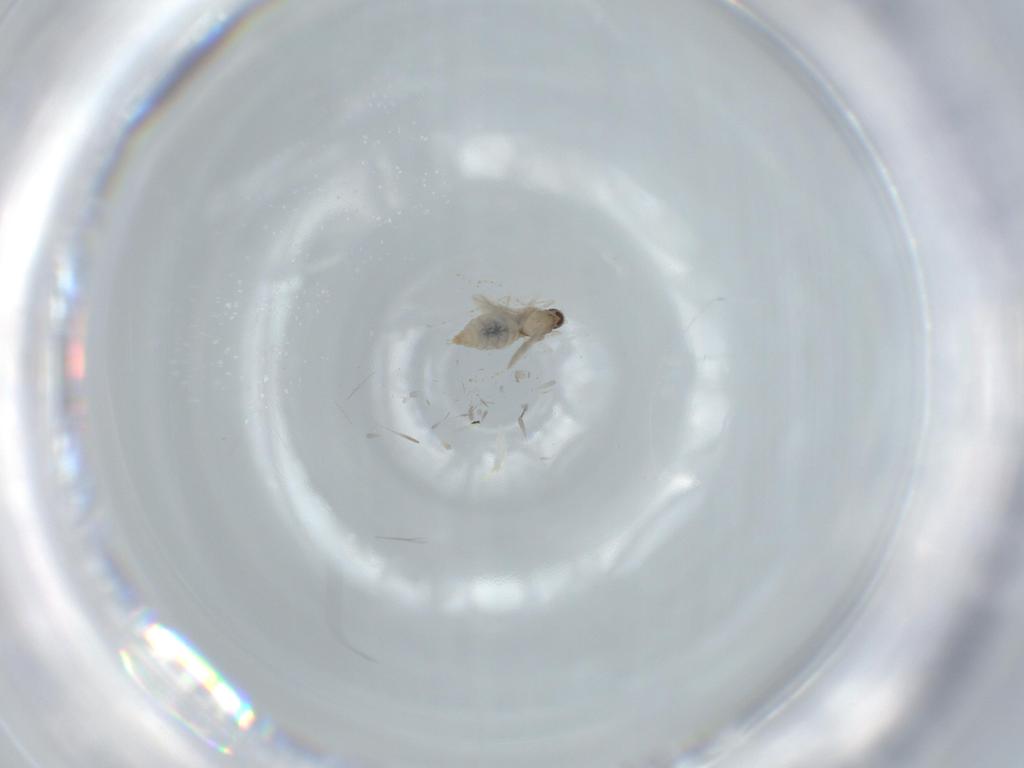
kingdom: Animalia
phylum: Arthropoda
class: Insecta
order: Diptera
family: Cecidomyiidae
